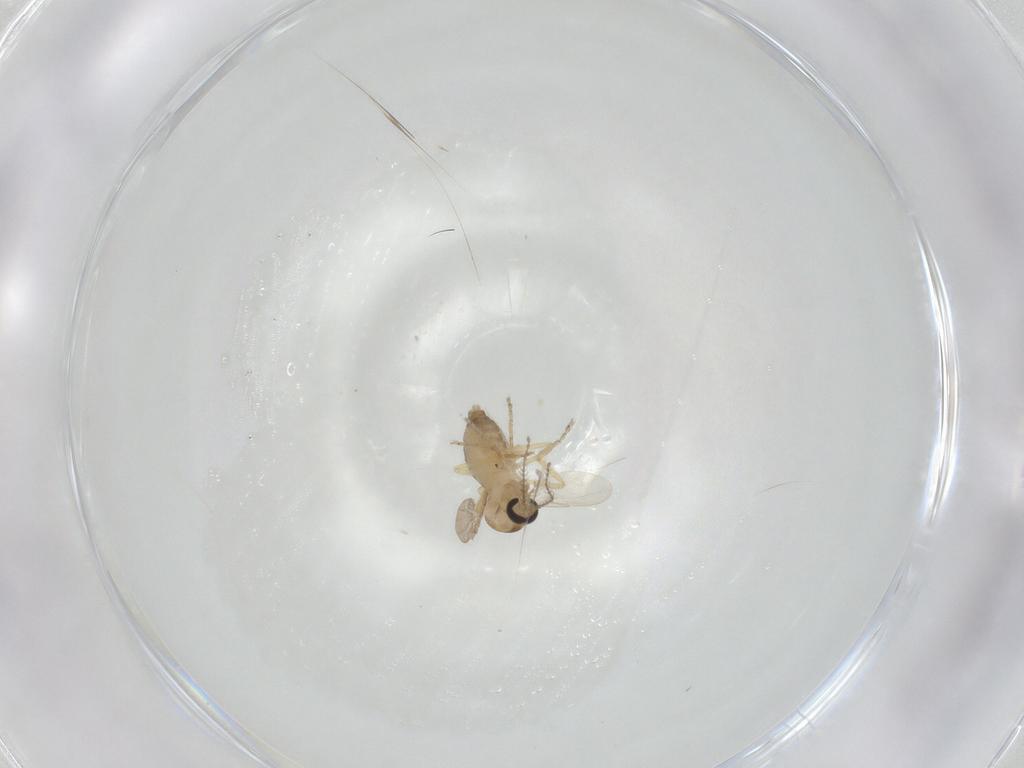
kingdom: Animalia
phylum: Arthropoda
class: Insecta
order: Diptera
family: Ceratopogonidae
